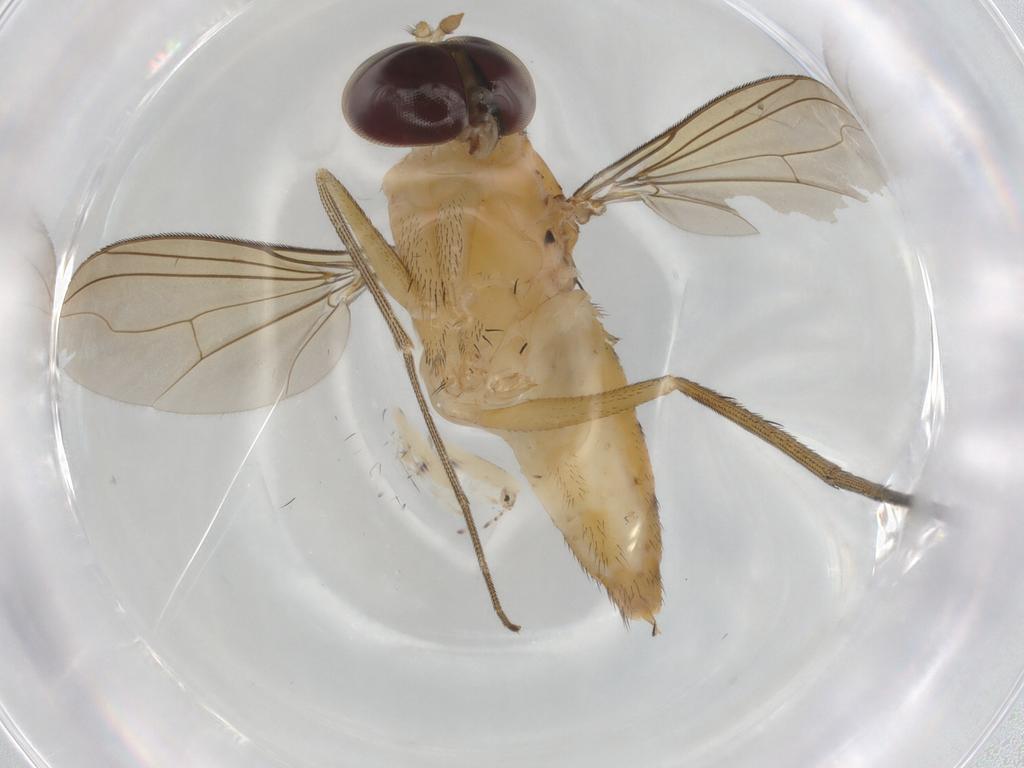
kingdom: Animalia
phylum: Arthropoda
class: Insecta
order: Diptera
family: Dolichopodidae
